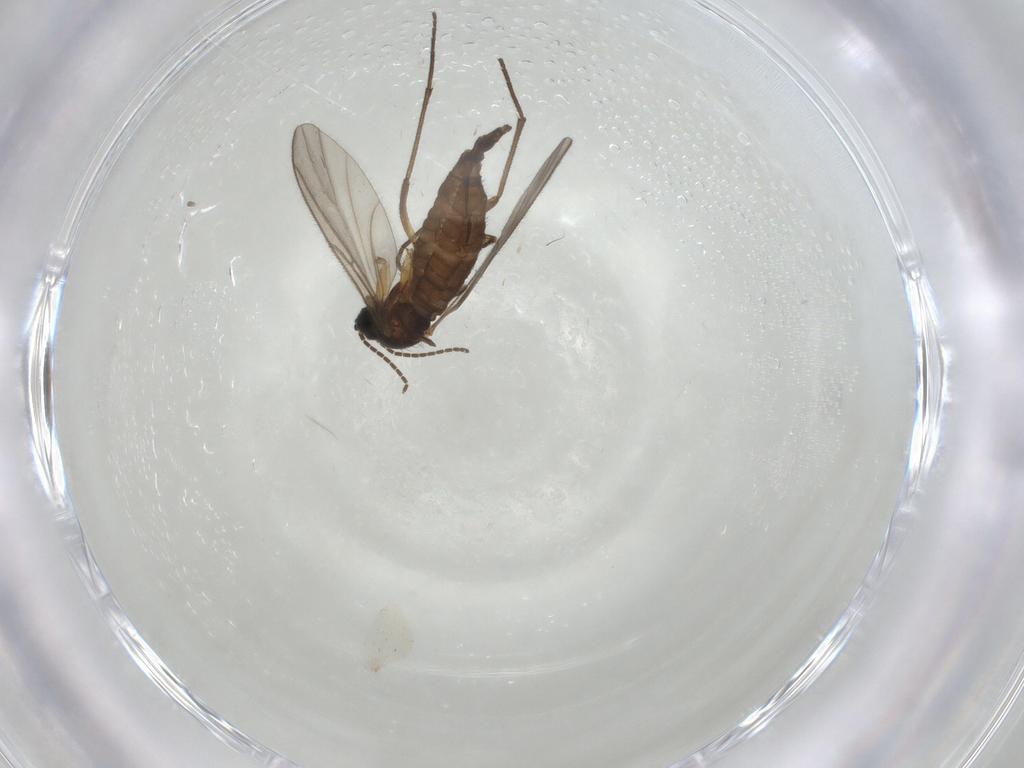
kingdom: Animalia
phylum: Arthropoda
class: Insecta
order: Diptera
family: Sciaridae
